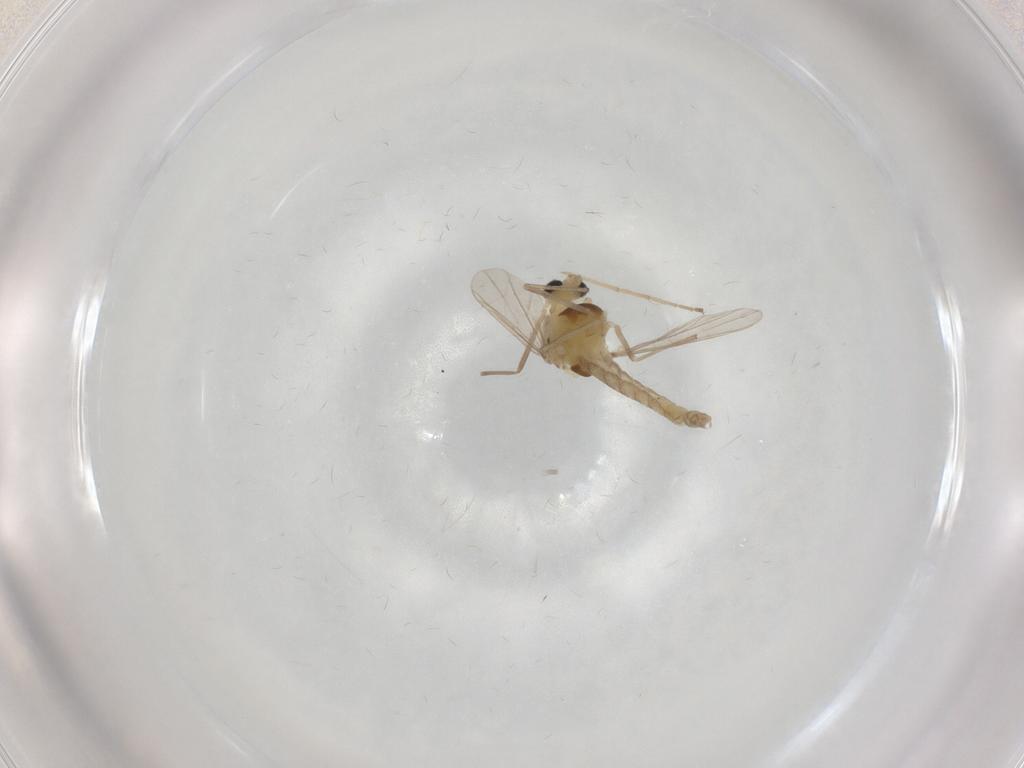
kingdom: Animalia
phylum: Arthropoda
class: Insecta
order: Diptera
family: Chironomidae
